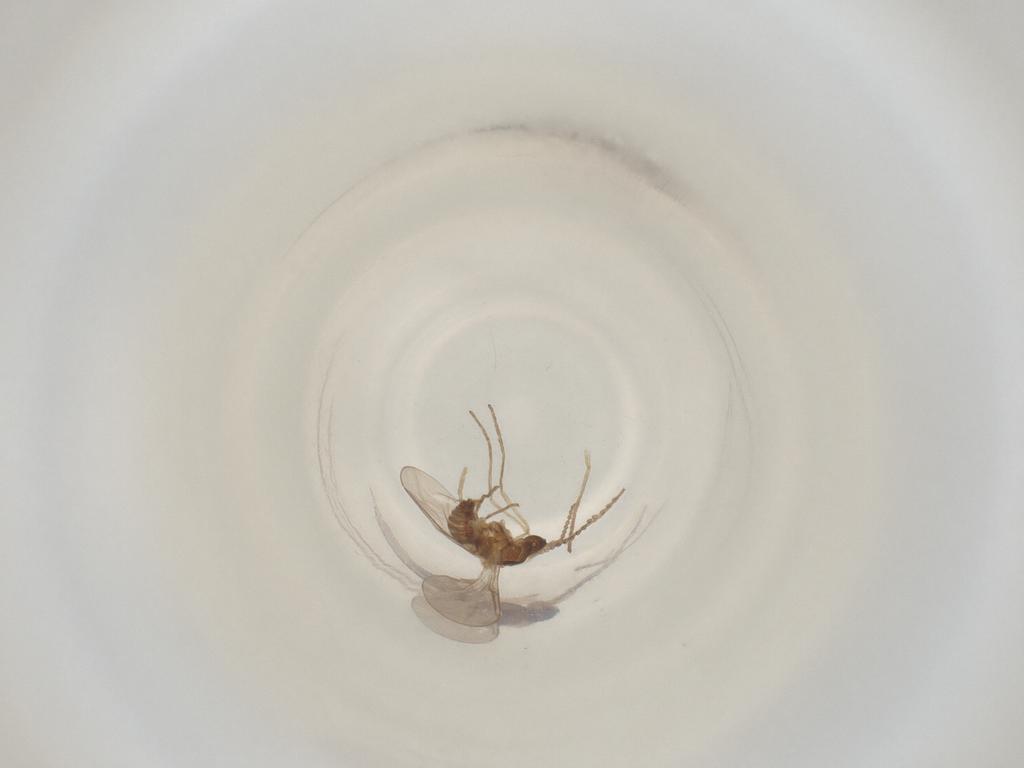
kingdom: Animalia
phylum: Arthropoda
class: Insecta
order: Diptera
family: Cecidomyiidae
